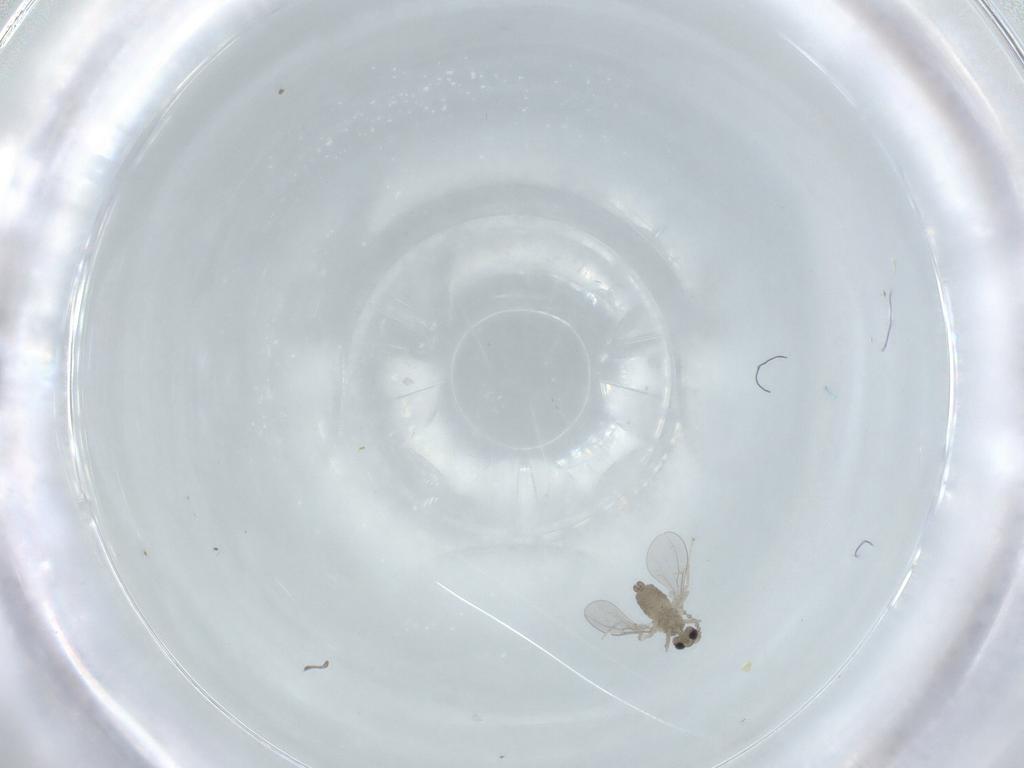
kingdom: Animalia
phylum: Arthropoda
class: Insecta
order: Diptera
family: Cecidomyiidae
